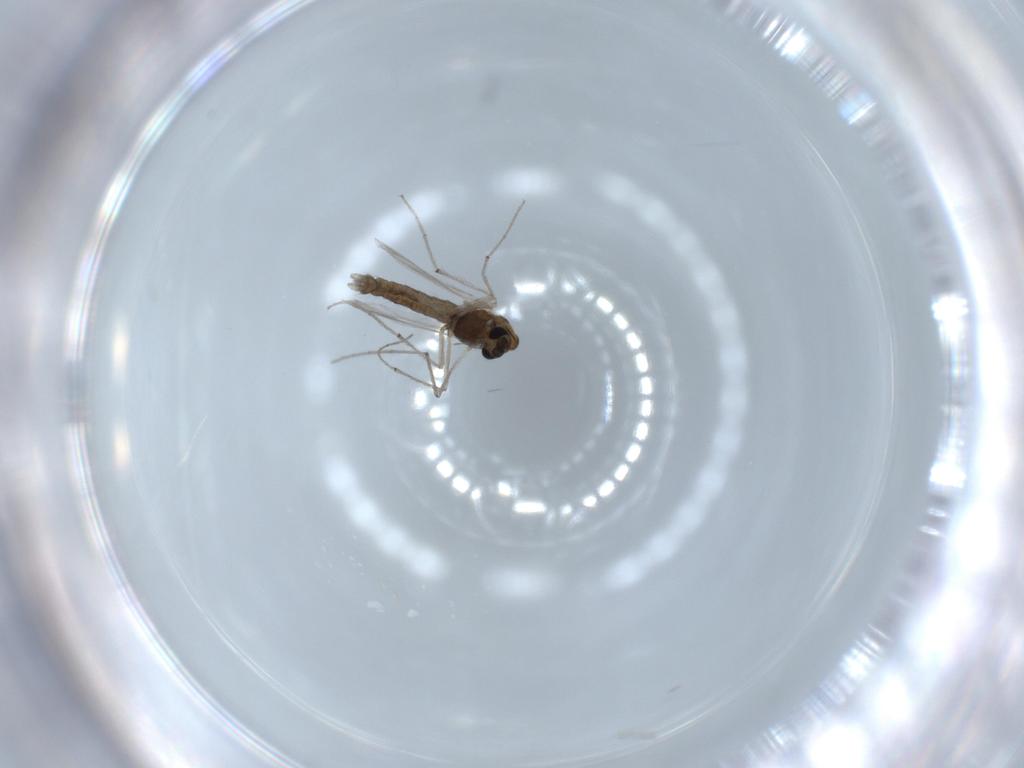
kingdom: Animalia
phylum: Arthropoda
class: Insecta
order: Diptera
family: Chironomidae
